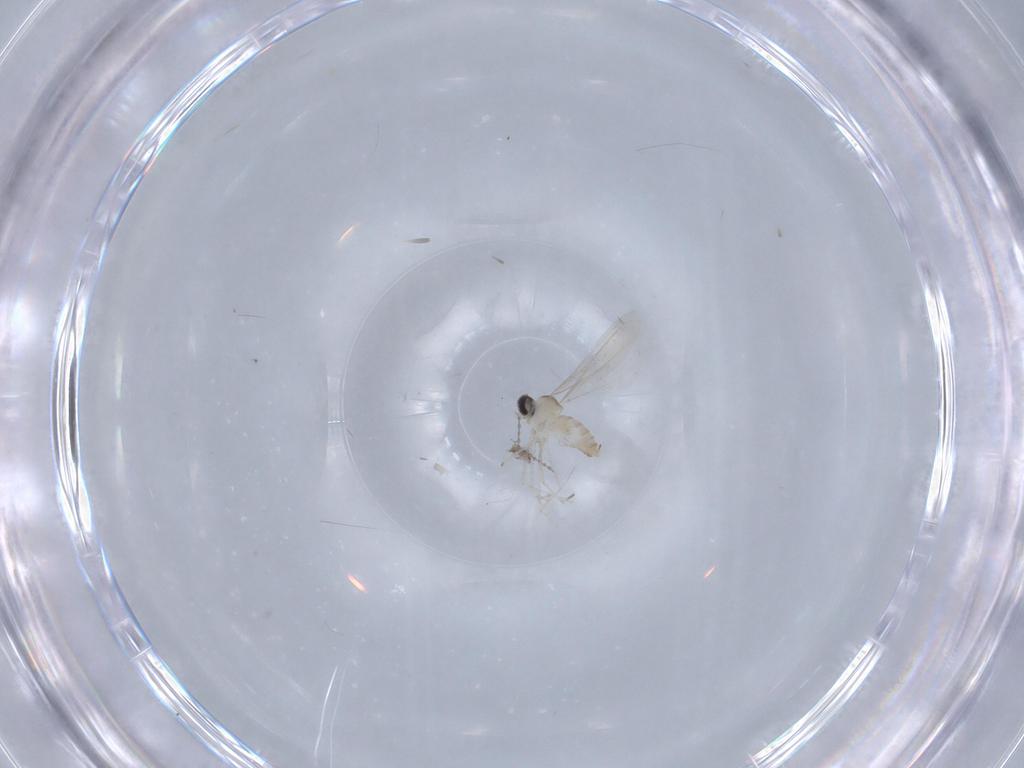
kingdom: Animalia
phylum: Arthropoda
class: Insecta
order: Diptera
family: Cecidomyiidae
